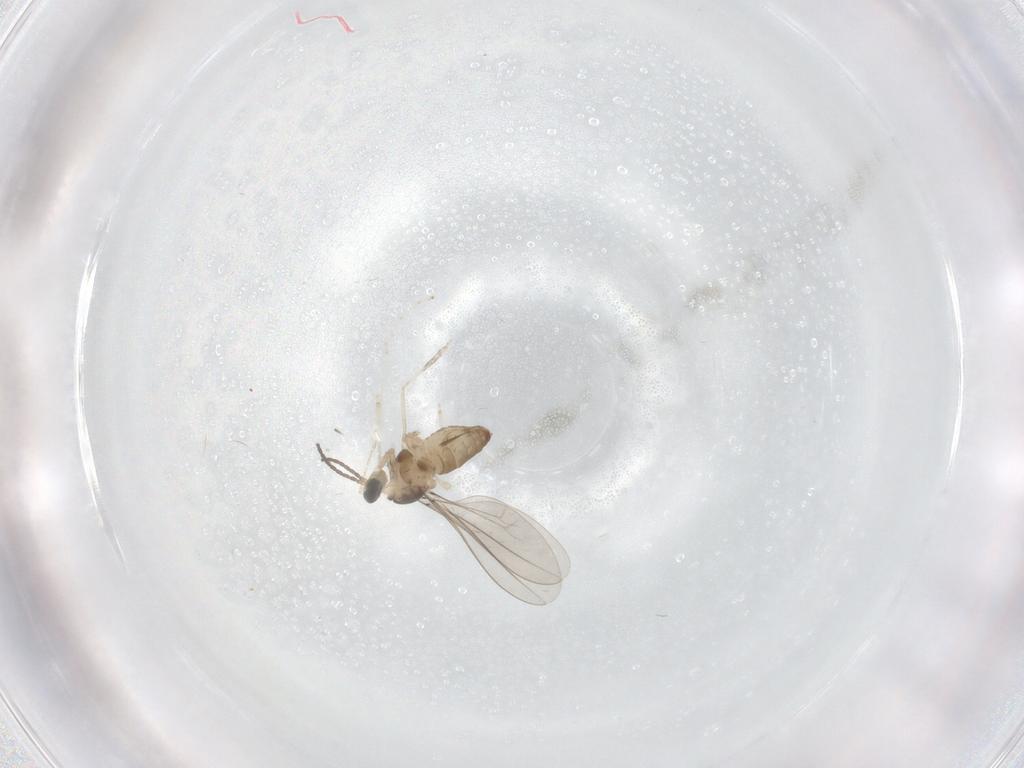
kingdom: Animalia
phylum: Arthropoda
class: Insecta
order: Diptera
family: Cecidomyiidae
